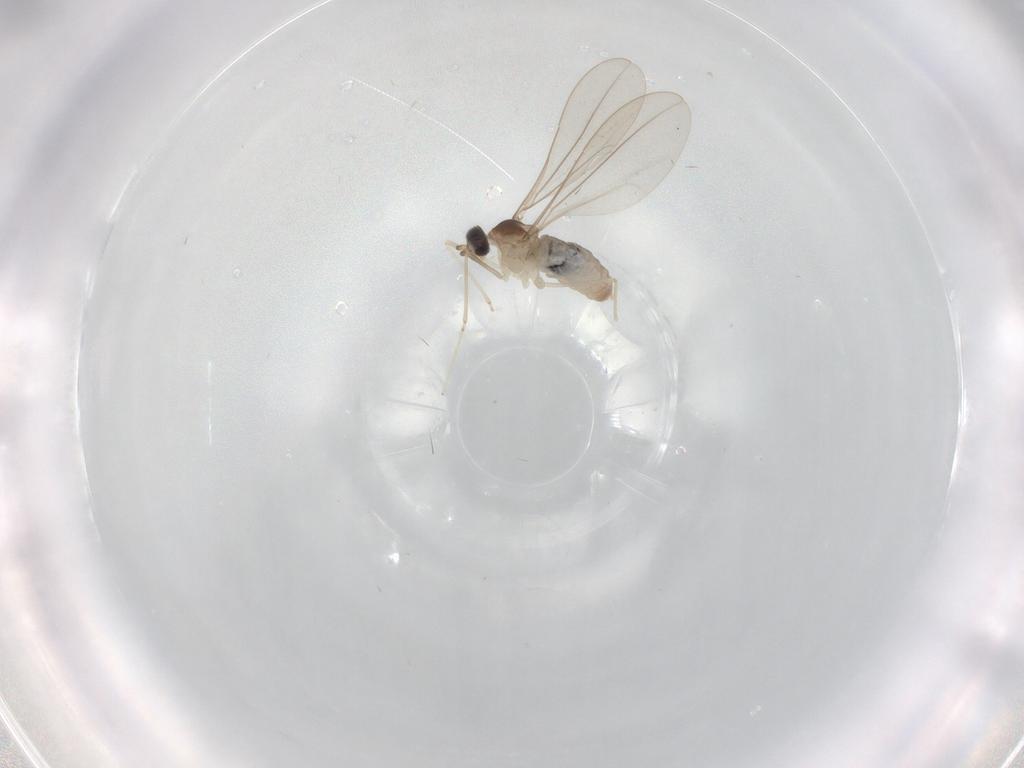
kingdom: Animalia
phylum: Arthropoda
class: Insecta
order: Diptera
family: Cecidomyiidae
